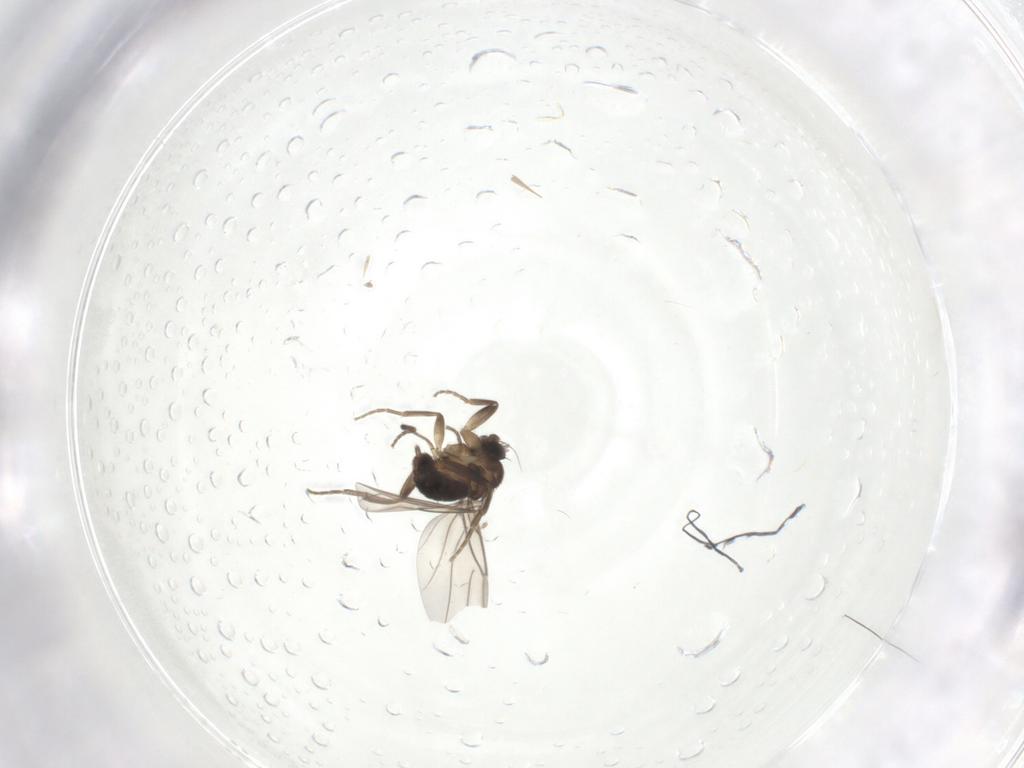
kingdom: Animalia
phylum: Arthropoda
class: Insecta
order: Diptera
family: Phoridae
